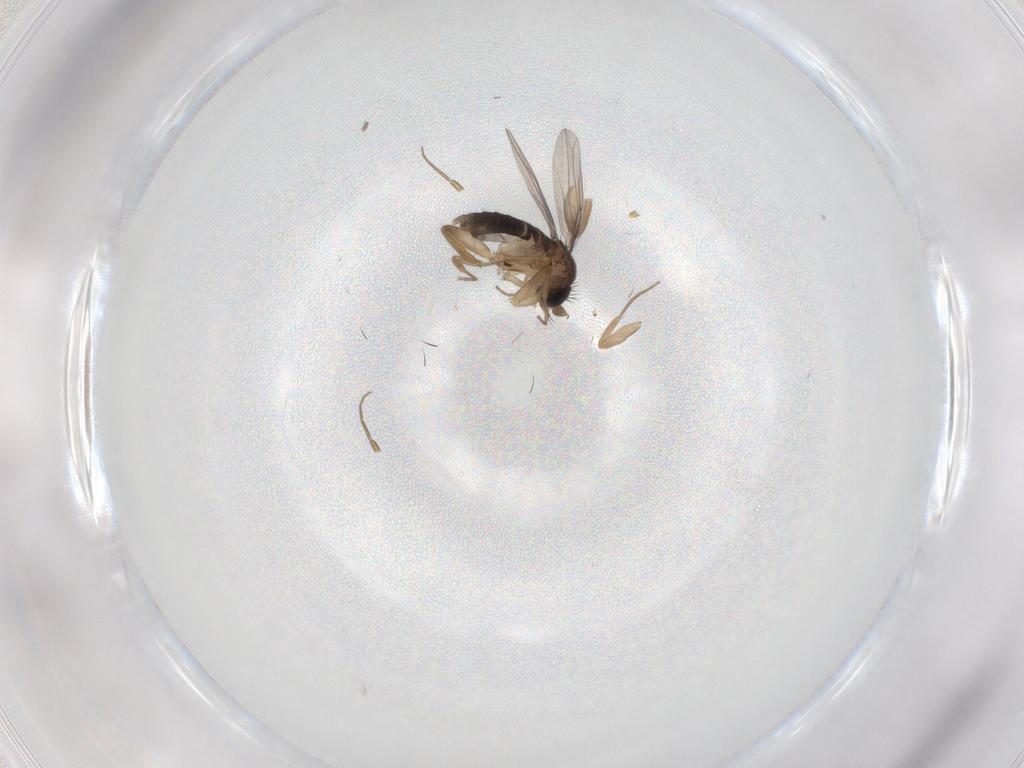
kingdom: Animalia
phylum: Arthropoda
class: Insecta
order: Diptera
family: Phoridae
